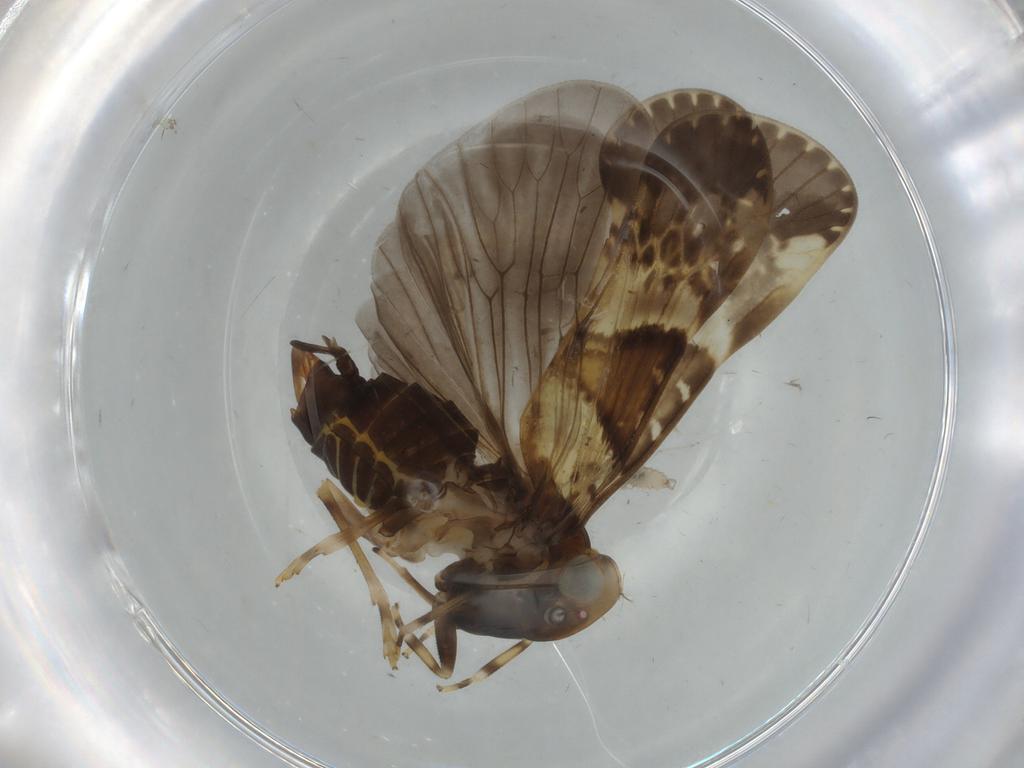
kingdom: Animalia
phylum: Arthropoda
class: Insecta
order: Hemiptera
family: Cixiidae
